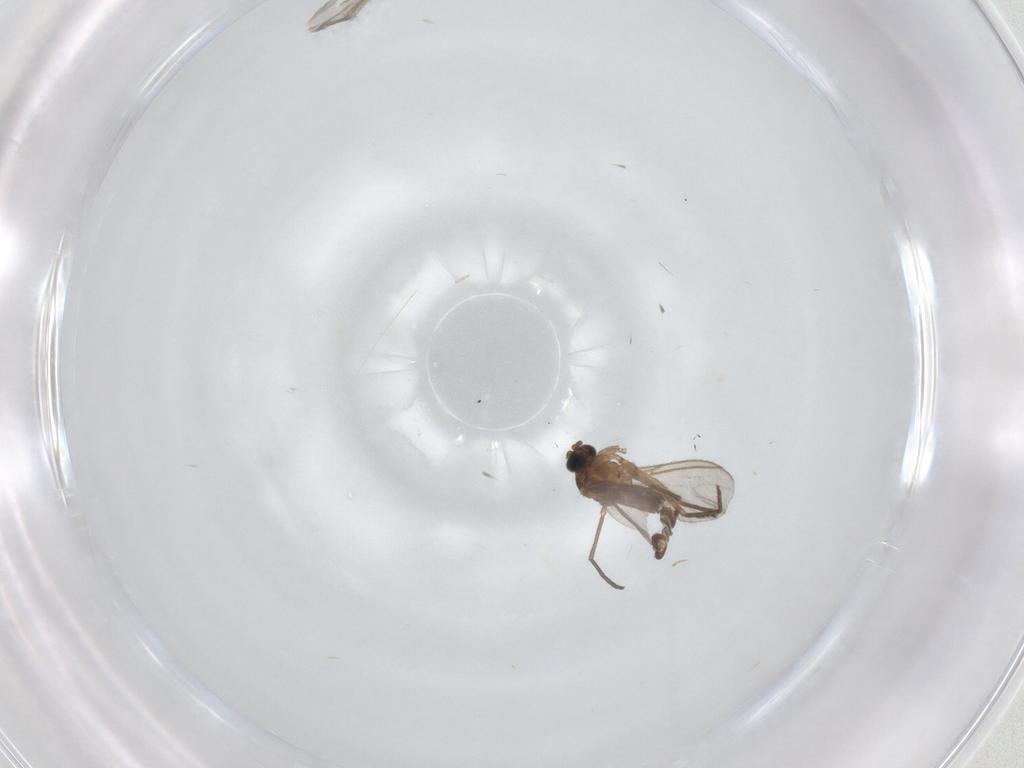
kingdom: Animalia
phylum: Arthropoda
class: Insecta
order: Diptera
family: Sciaridae
